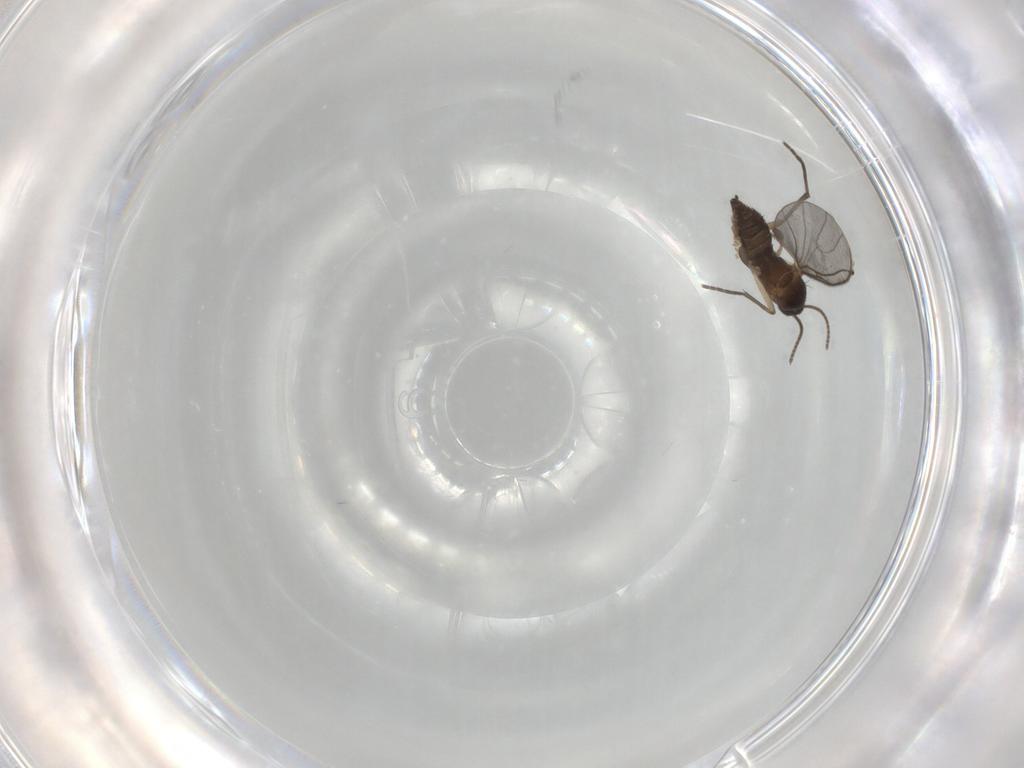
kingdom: Animalia
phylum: Arthropoda
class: Insecta
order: Diptera
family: Sciaridae
